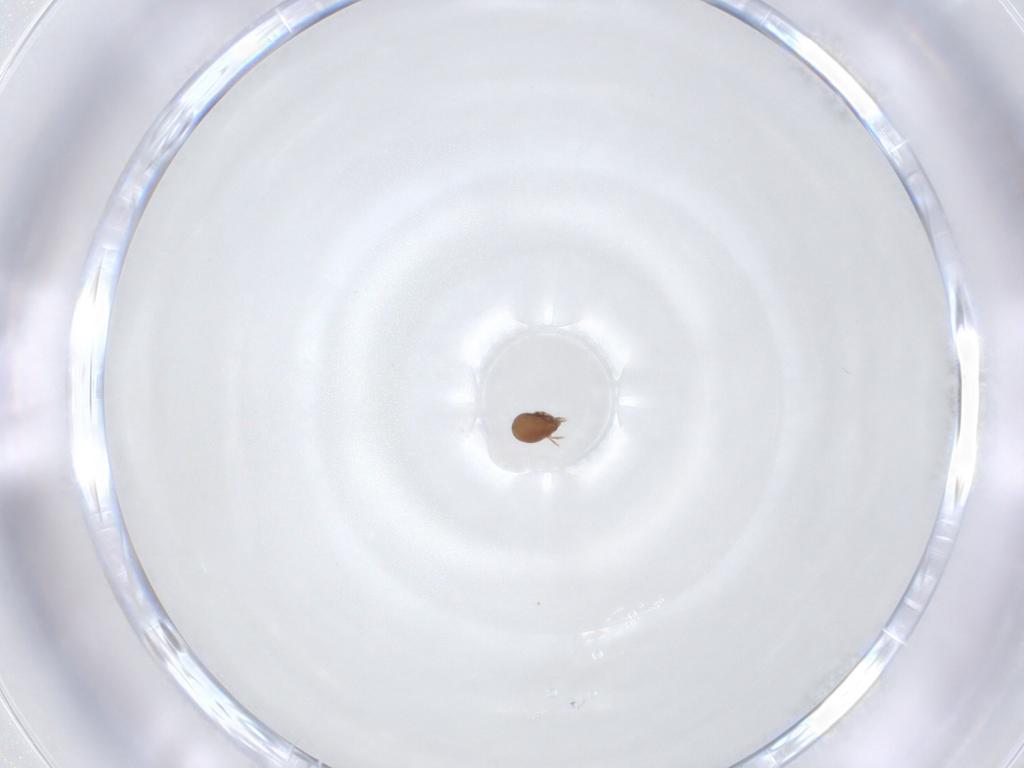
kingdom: Animalia
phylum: Arthropoda
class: Arachnida
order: Sarcoptiformes
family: Scheloribatidae
